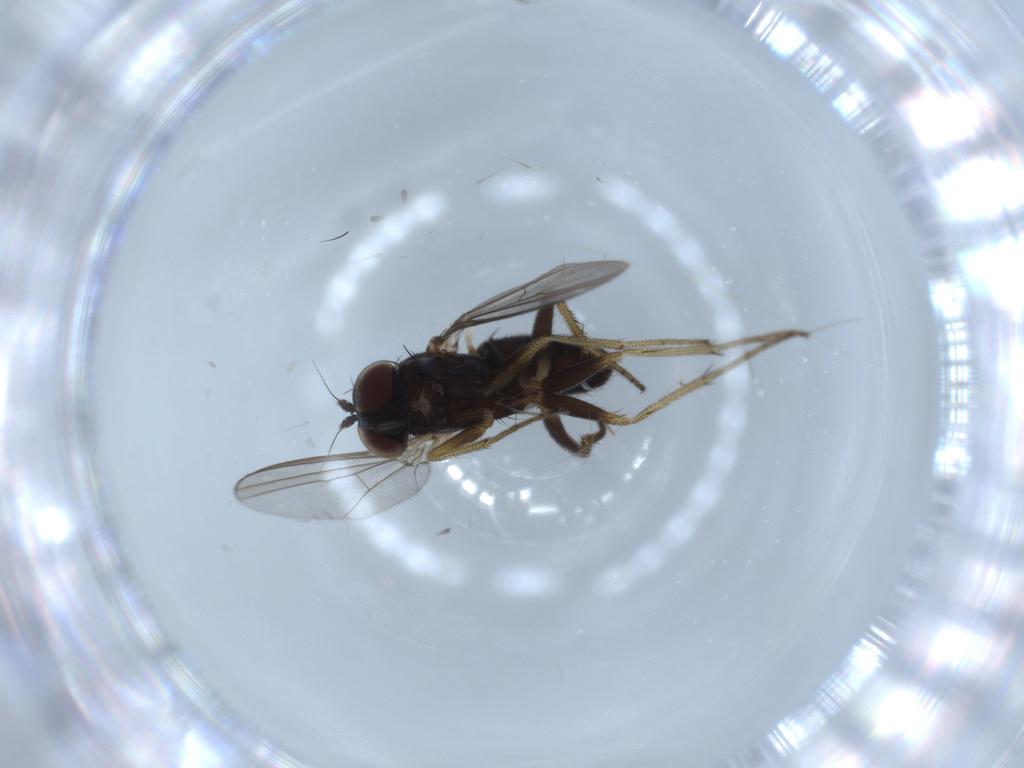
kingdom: Animalia
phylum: Arthropoda
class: Insecta
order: Diptera
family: Dolichopodidae
